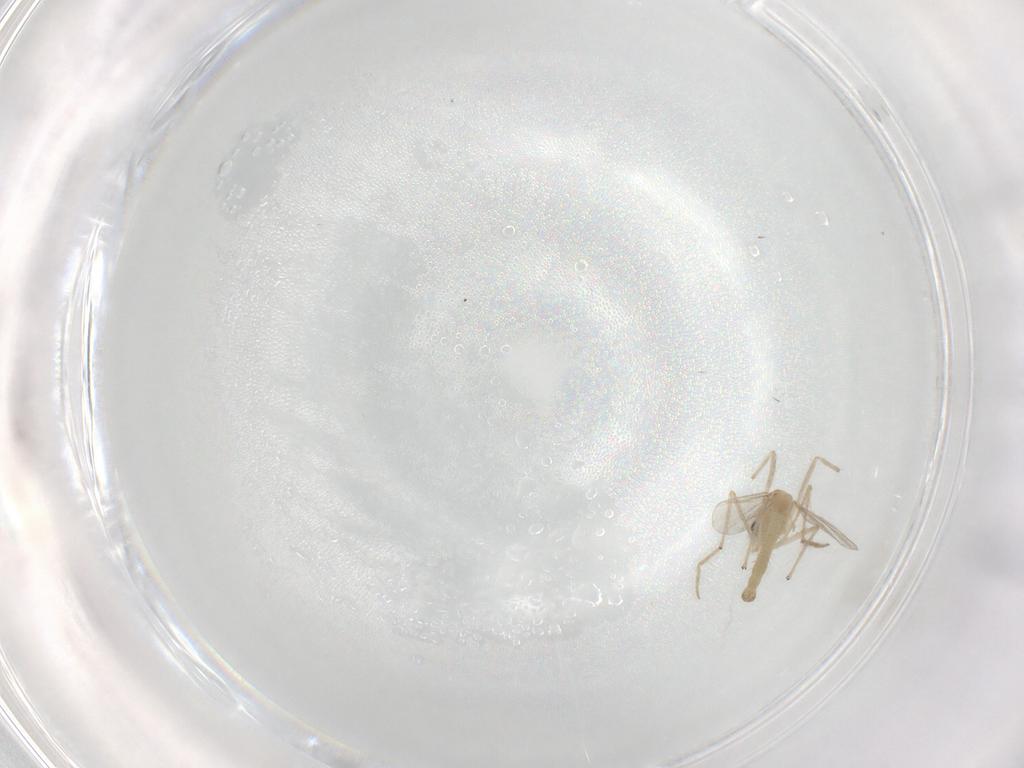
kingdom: Animalia
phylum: Arthropoda
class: Insecta
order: Diptera
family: Chironomidae
